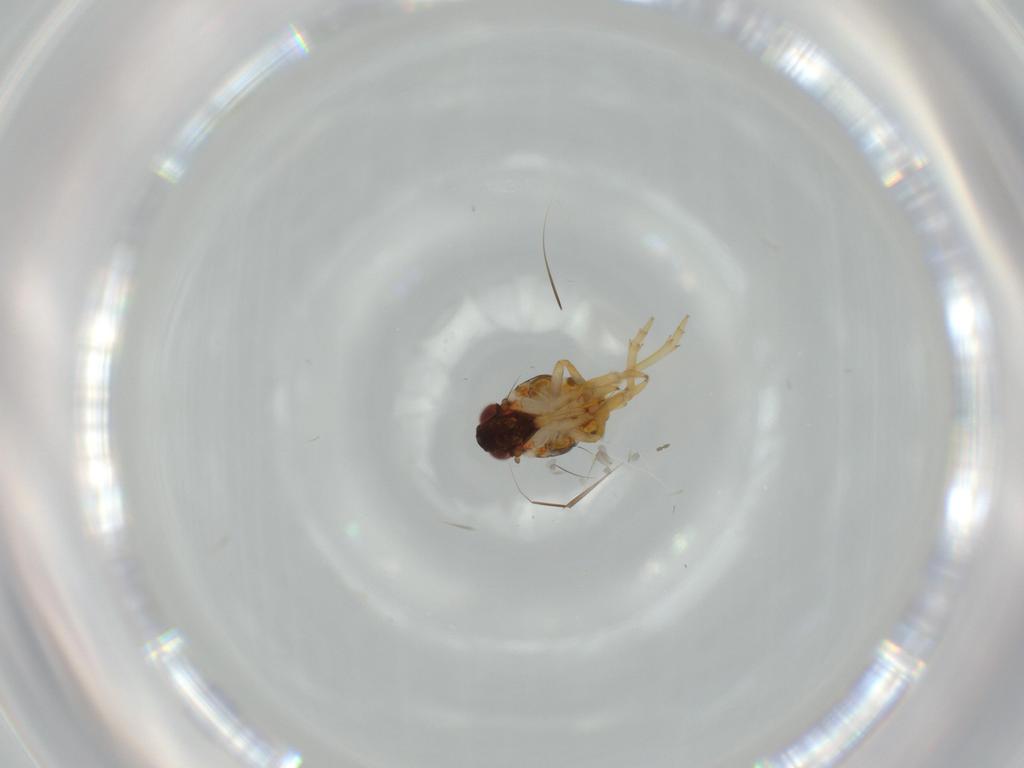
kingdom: Animalia
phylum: Arthropoda
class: Insecta
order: Hemiptera
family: Issidae
